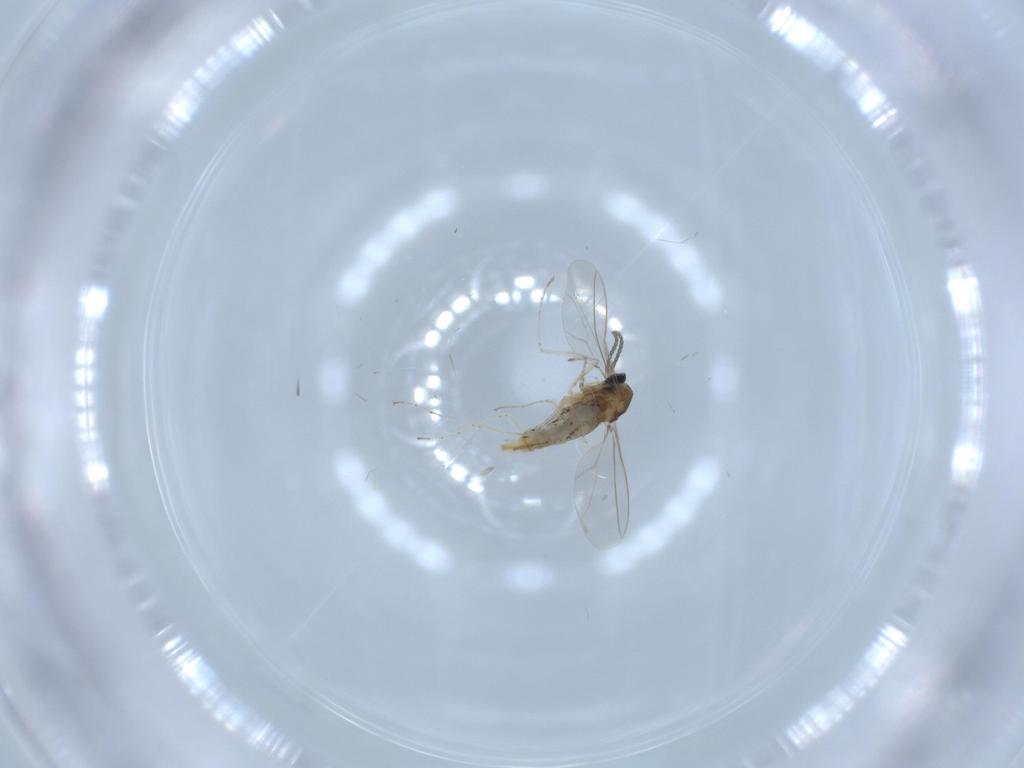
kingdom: Animalia
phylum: Arthropoda
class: Insecta
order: Diptera
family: Cecidomyiidae
